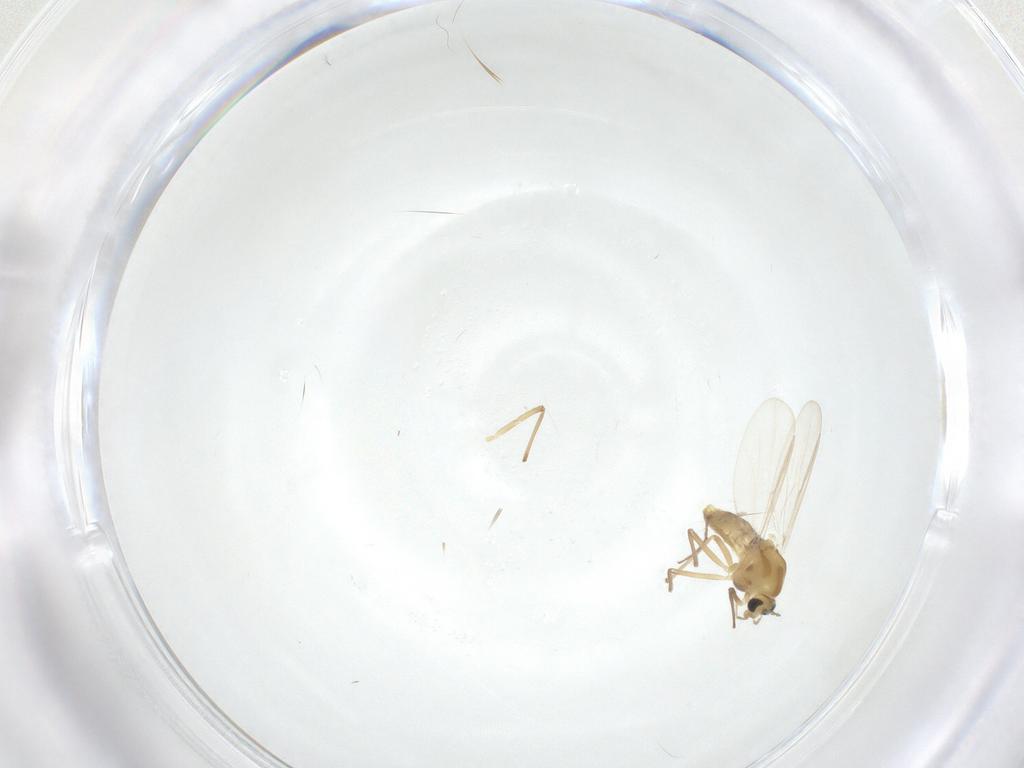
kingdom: Animalia
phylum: Arthropoda
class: Insecta
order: Diptera
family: Chironomidae
